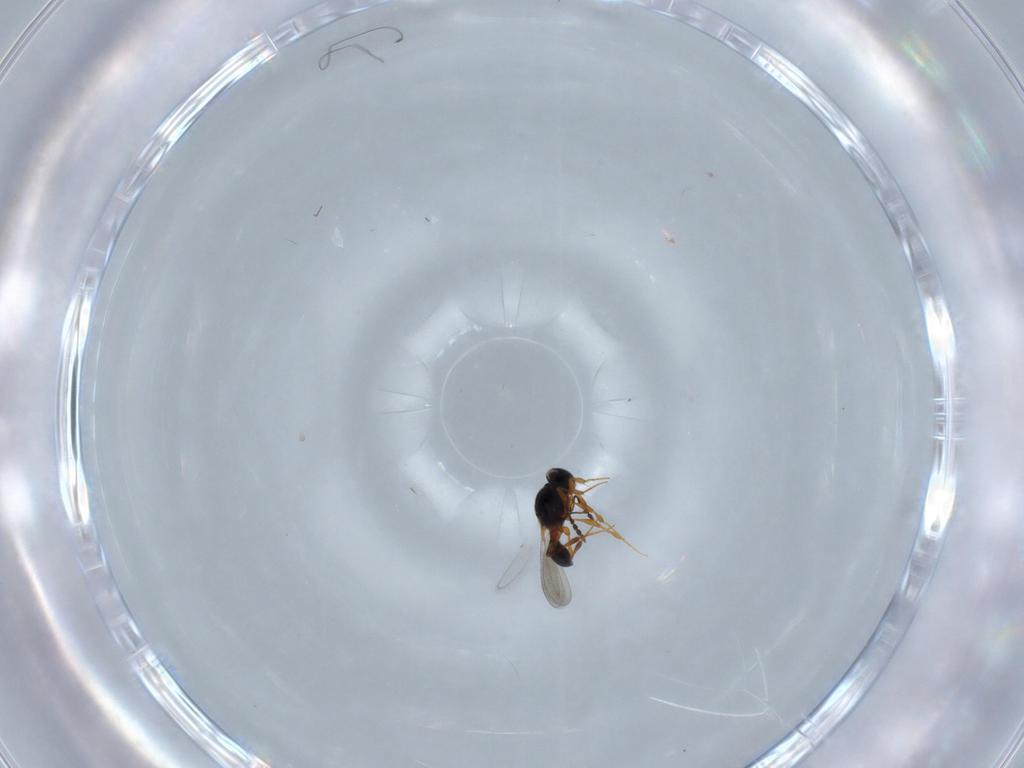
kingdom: Animalia
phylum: Arthropoda
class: Insecta
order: Hymenoptera
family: Platygastridae
